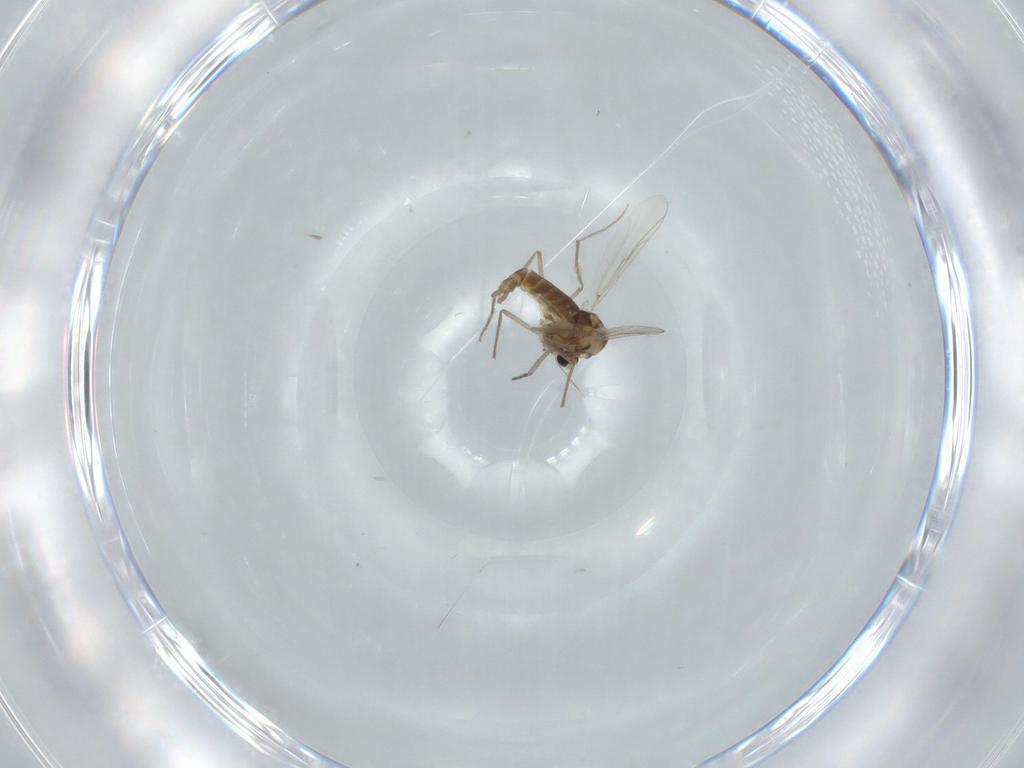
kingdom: Animalia
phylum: Arthropoda
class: Insecta
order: Diptera
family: Chironomidae
